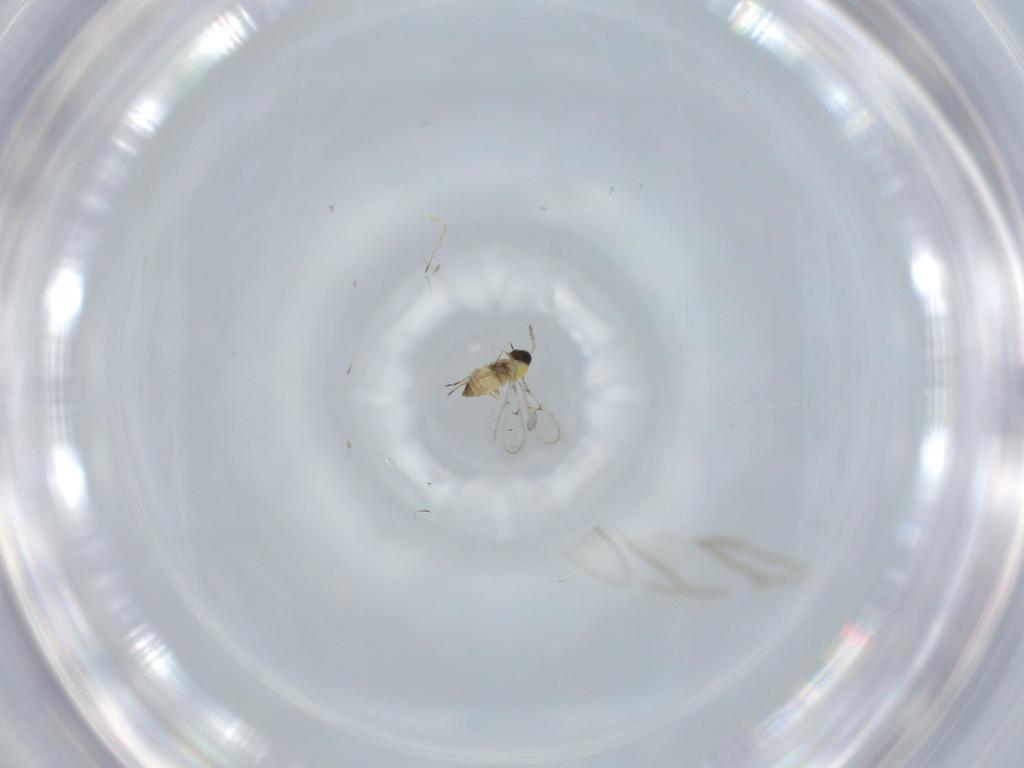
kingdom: Animalia
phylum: Arthropoda
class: Insecta
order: Hymenoptera
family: Trichogrammatidae
